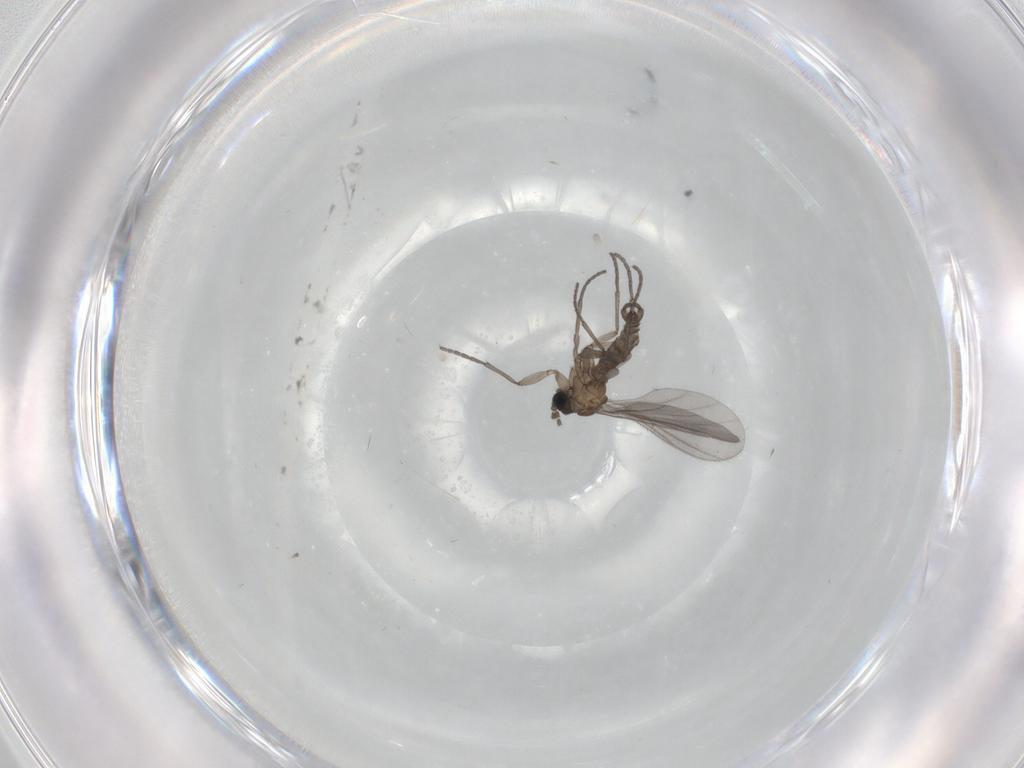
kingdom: Animalia
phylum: Arthropoda
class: Insecta
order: Diptera
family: Sciaridae
